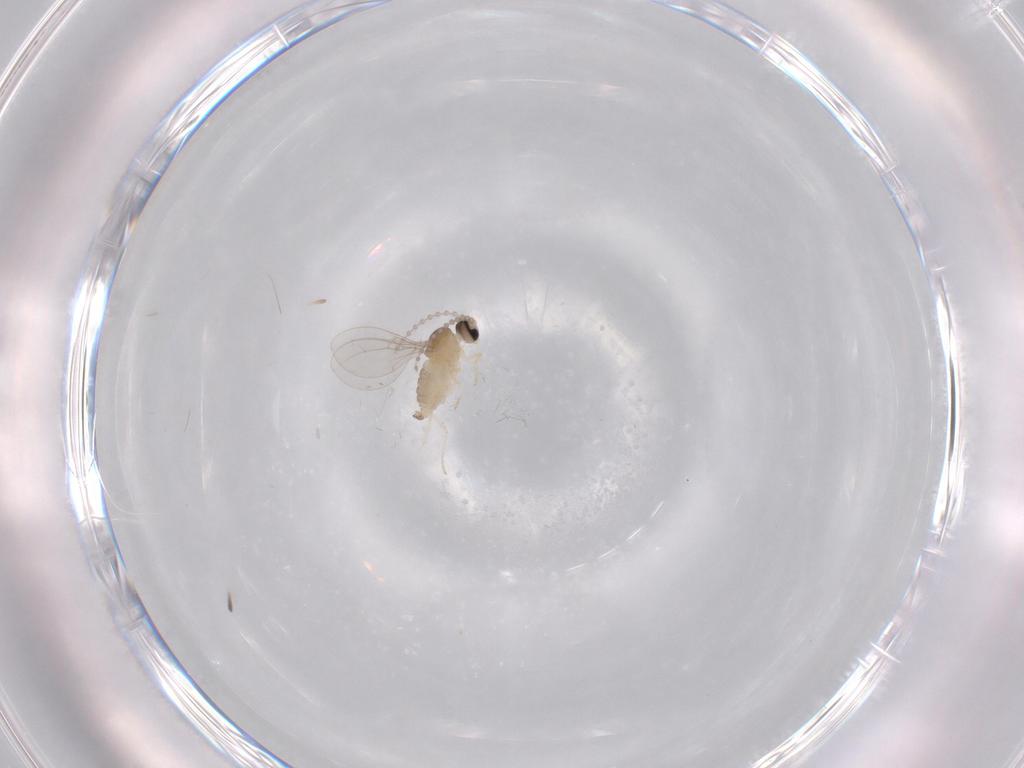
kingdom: Animalia
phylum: Arthropoda
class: Insecta
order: Diptera
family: Cecidomyiidae
